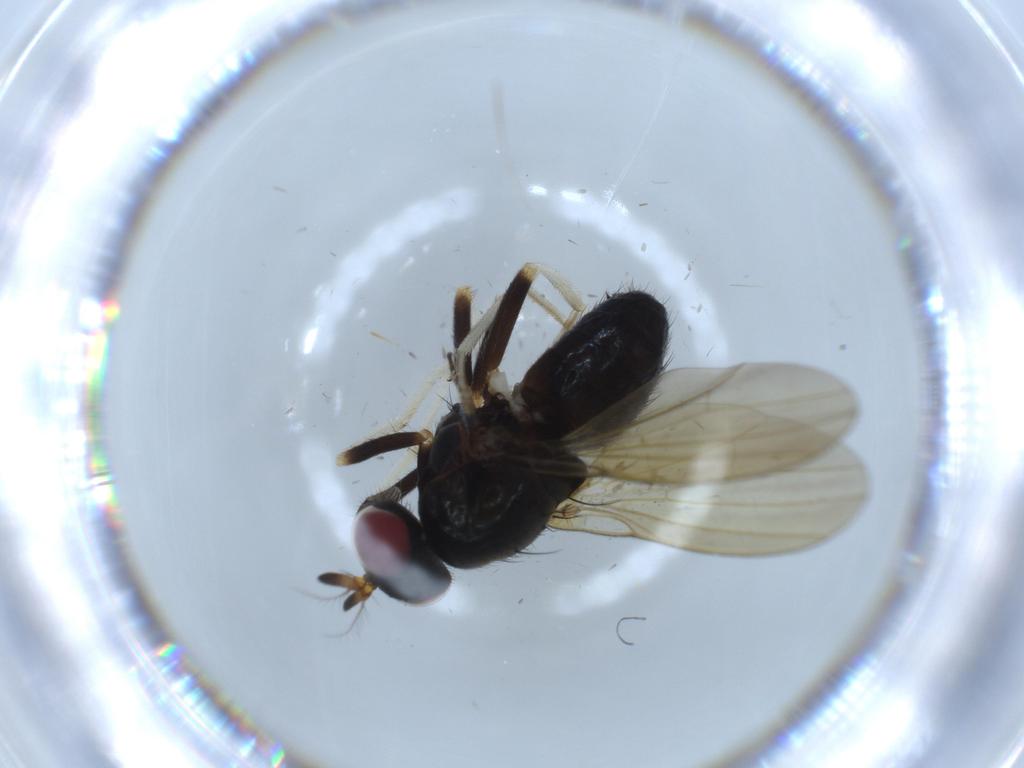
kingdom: Animalia
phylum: Arthropoda
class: Insecta
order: Diptera
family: Lauxaniidae
